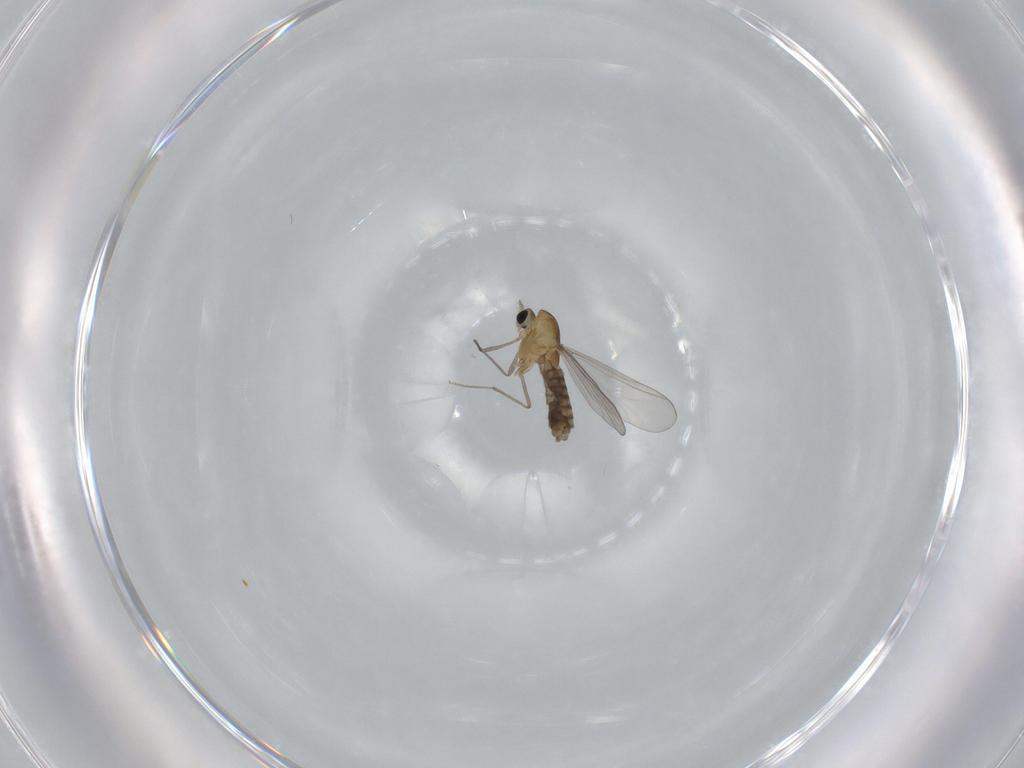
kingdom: Animalia
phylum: Arthropoda
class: Insecta
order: Diptera
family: Chironomidae
